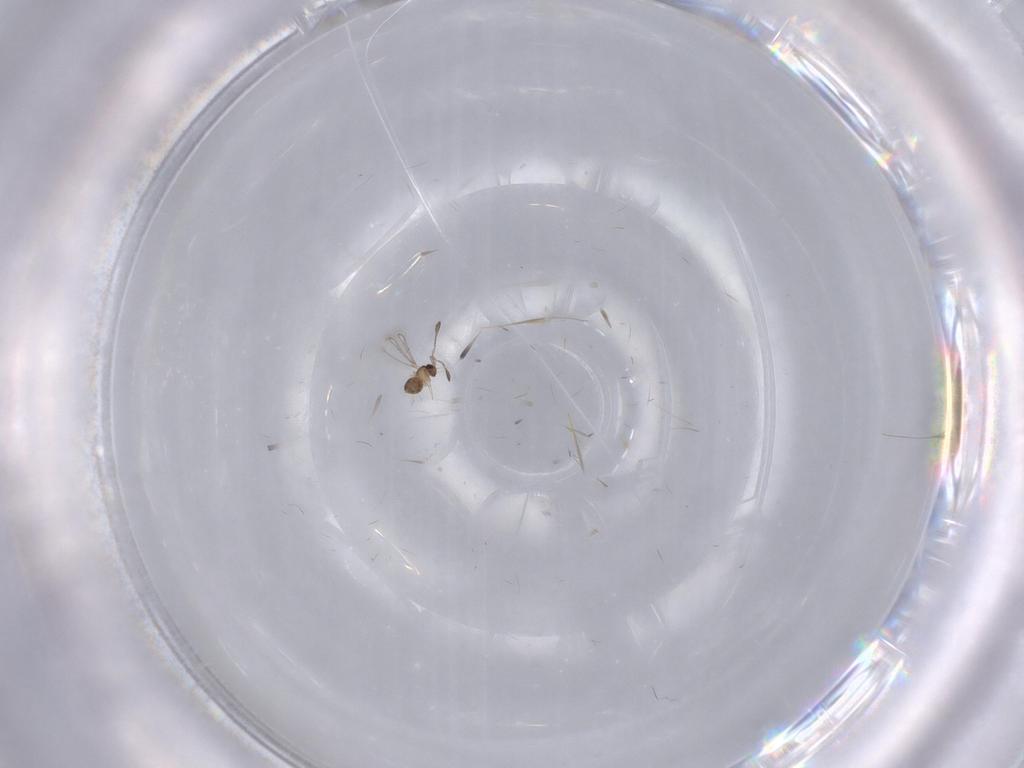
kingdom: Animalia
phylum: Arthropoda
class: Insecta
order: Hymenoptera
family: Mymaridae
